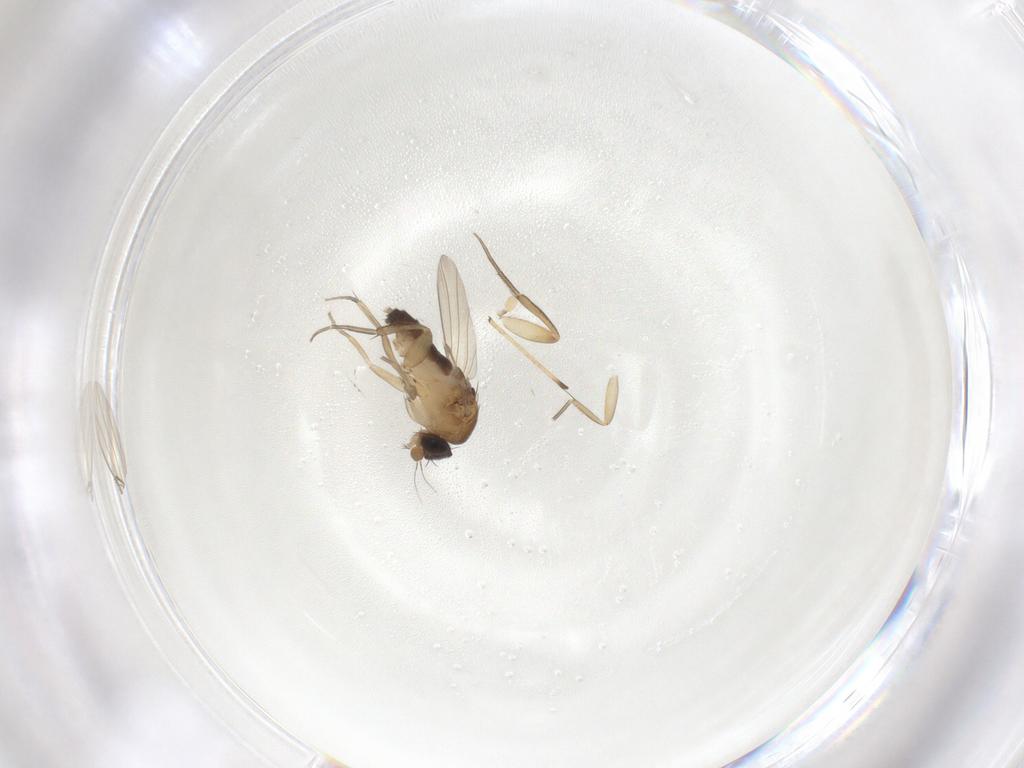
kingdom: Animalia
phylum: Arthropoda
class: Insecta
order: Diptera
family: Phoridae
